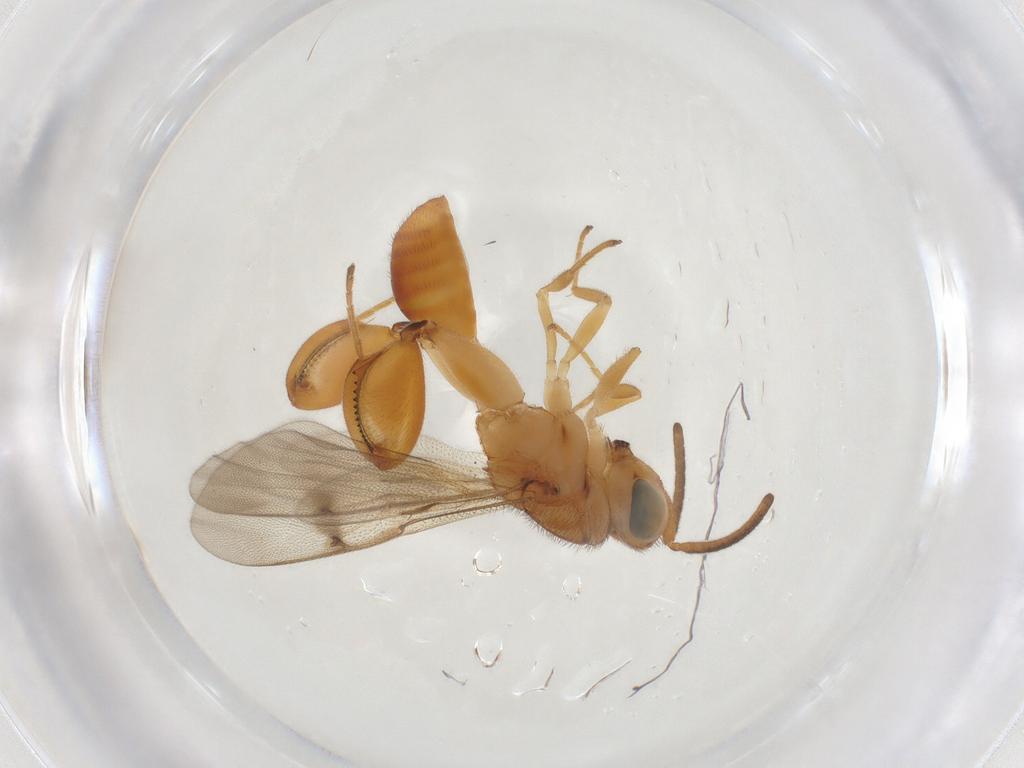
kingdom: Animalia
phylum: Arthropoda
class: Insecta
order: Hymenoptera
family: Chalcididae
